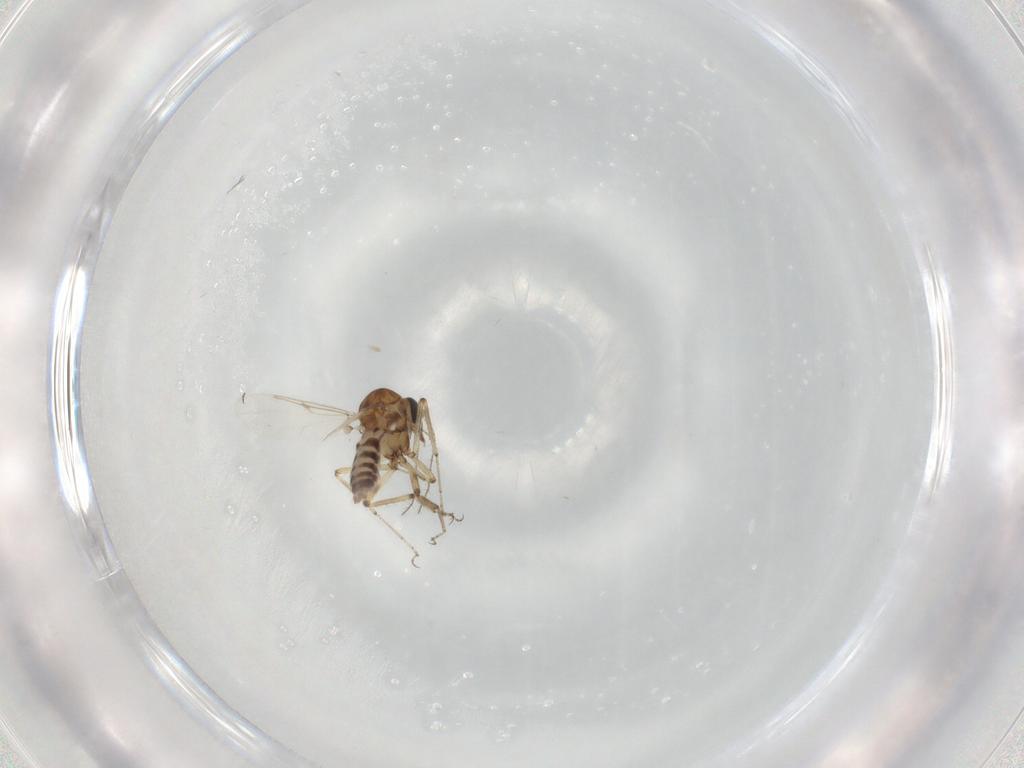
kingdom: Animalia
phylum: Arthropoda
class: Insecta
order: Diptera
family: Ceratopogonidae
